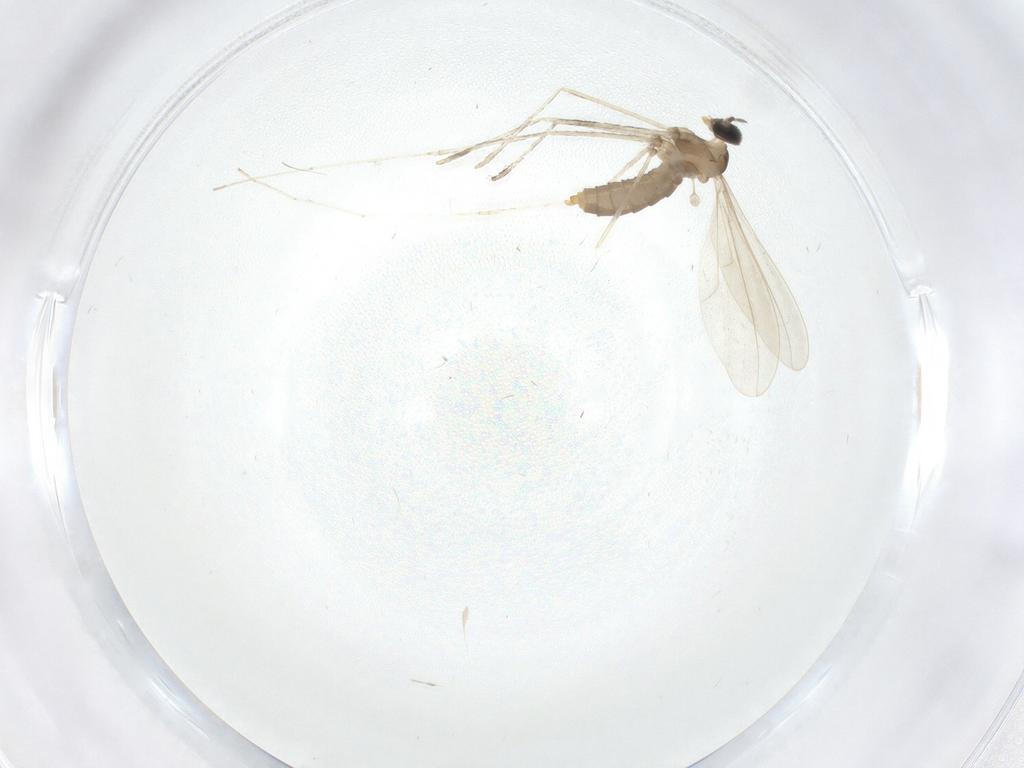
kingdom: Animalia
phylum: Arthropoda
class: Insecta
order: Diptera
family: Cecidomyiidae
